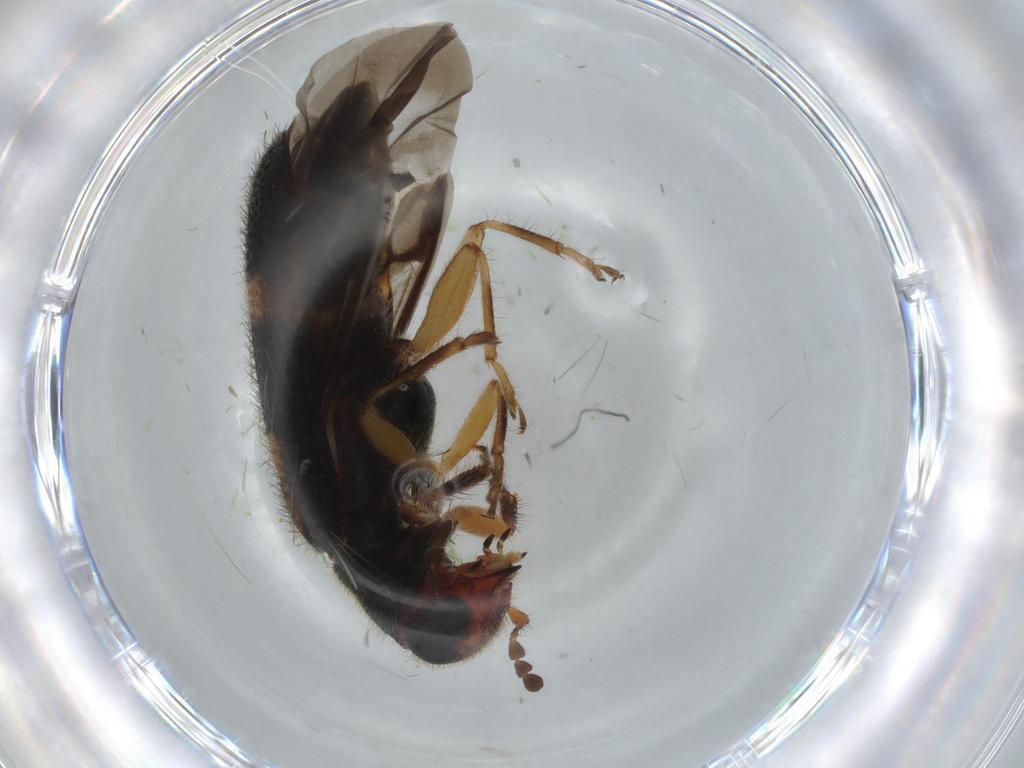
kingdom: Animalia
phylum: Arthropoda
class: Insecta
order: Coleoptera
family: Cleridae
